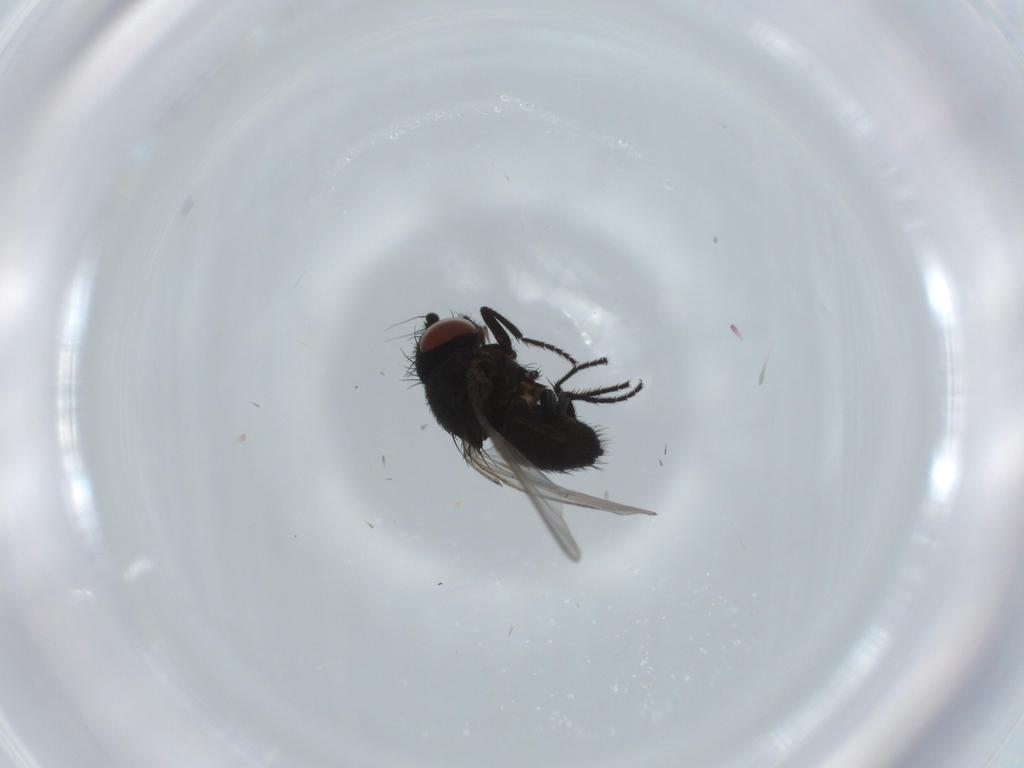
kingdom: Animalia
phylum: Arthropoda
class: Insecta
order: Diptera
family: Milichiidae
